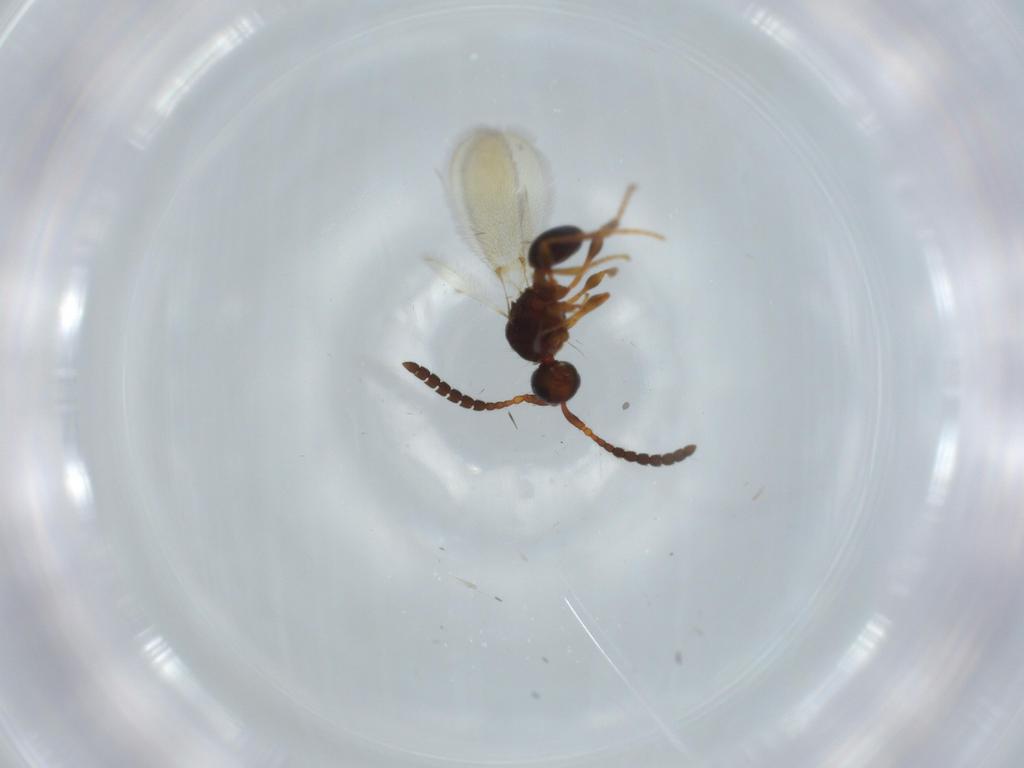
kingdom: Animalia
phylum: Arthropoda
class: Insecta
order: Hymenoptera
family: Diapriidae
